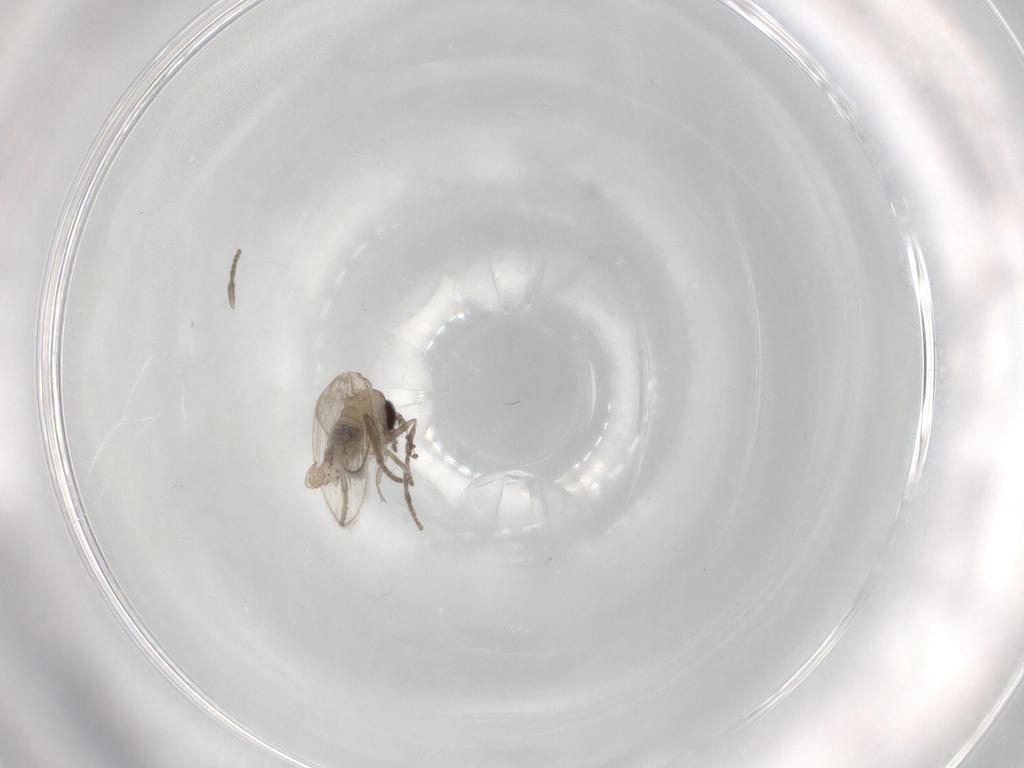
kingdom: Animalia
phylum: Arthropoda
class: Insecta
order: Diptera
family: Psychodidae
